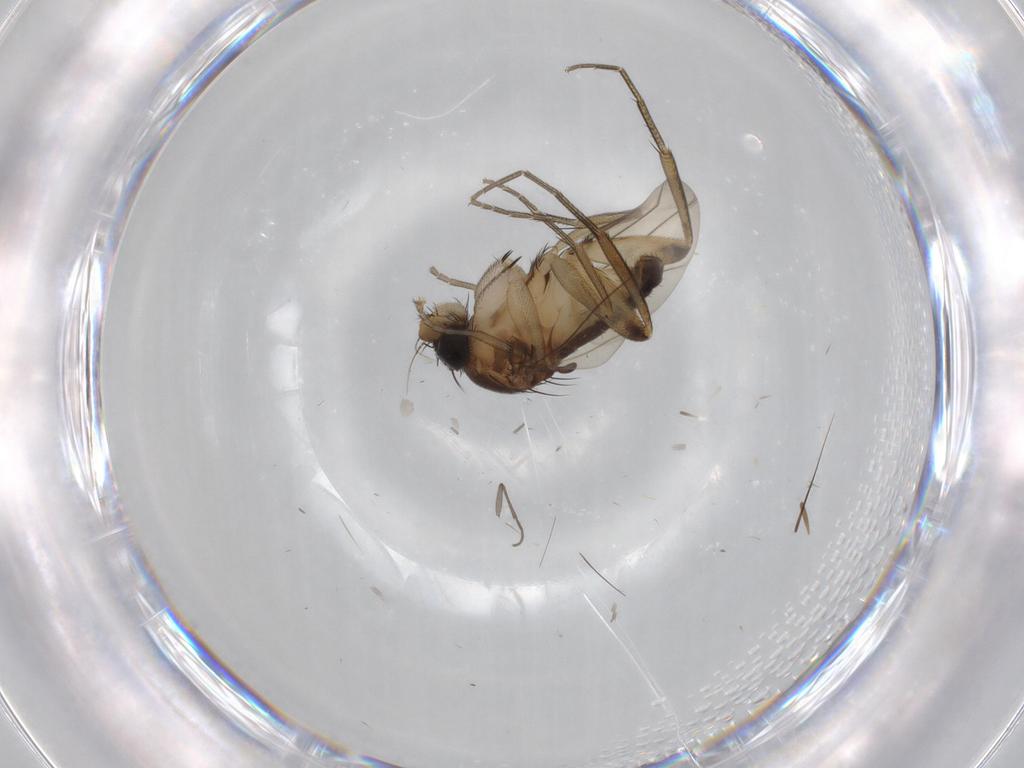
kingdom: Animalia
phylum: Arthropoda
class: Insecta
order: Diptera
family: Phoridae
